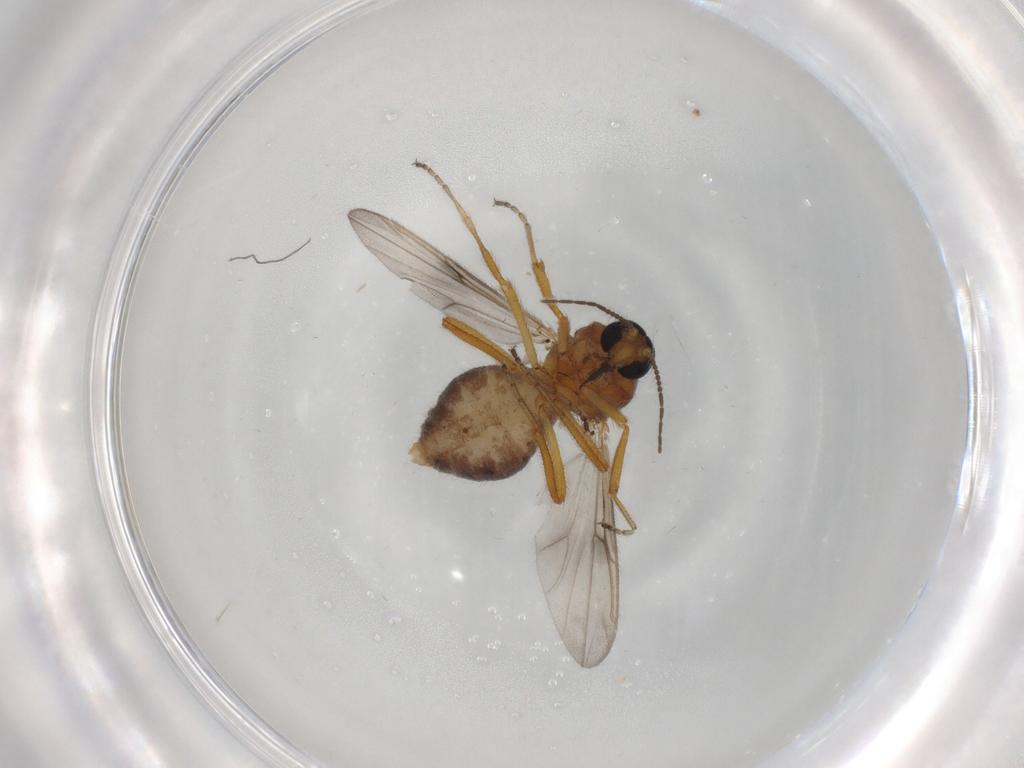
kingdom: Animalia
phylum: Arthropoda
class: Insecta
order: Diptera
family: Ceratopogonidae
